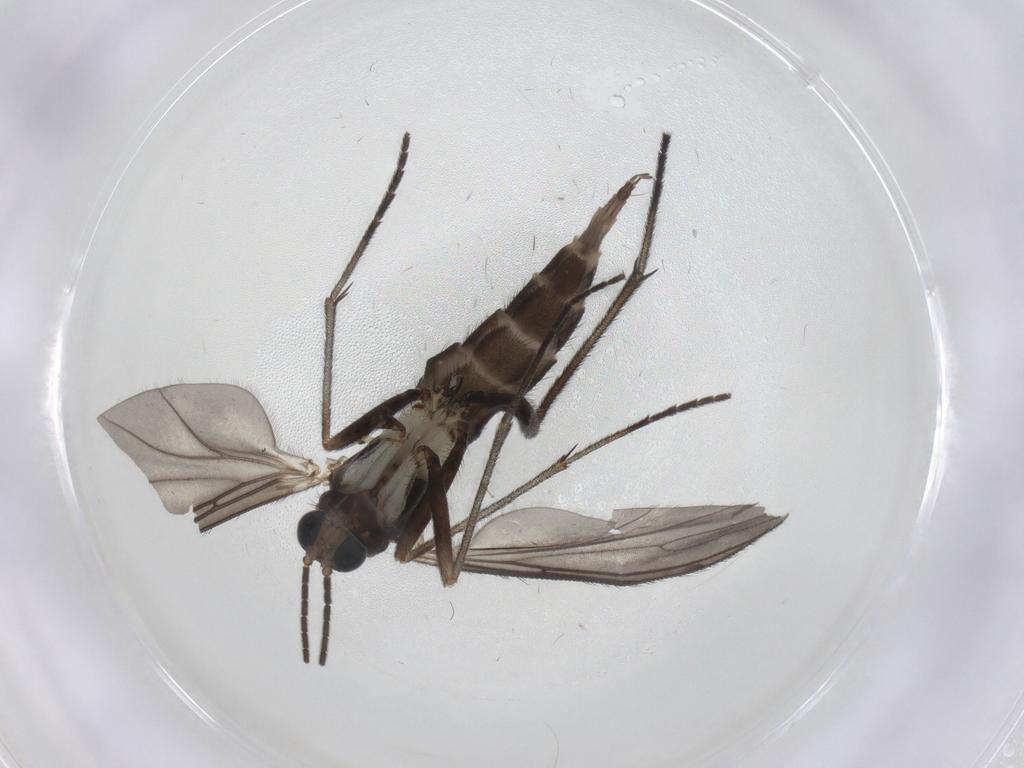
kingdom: Animalia
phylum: Arthropoda
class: Insecta
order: Diptera
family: Sciaridae
